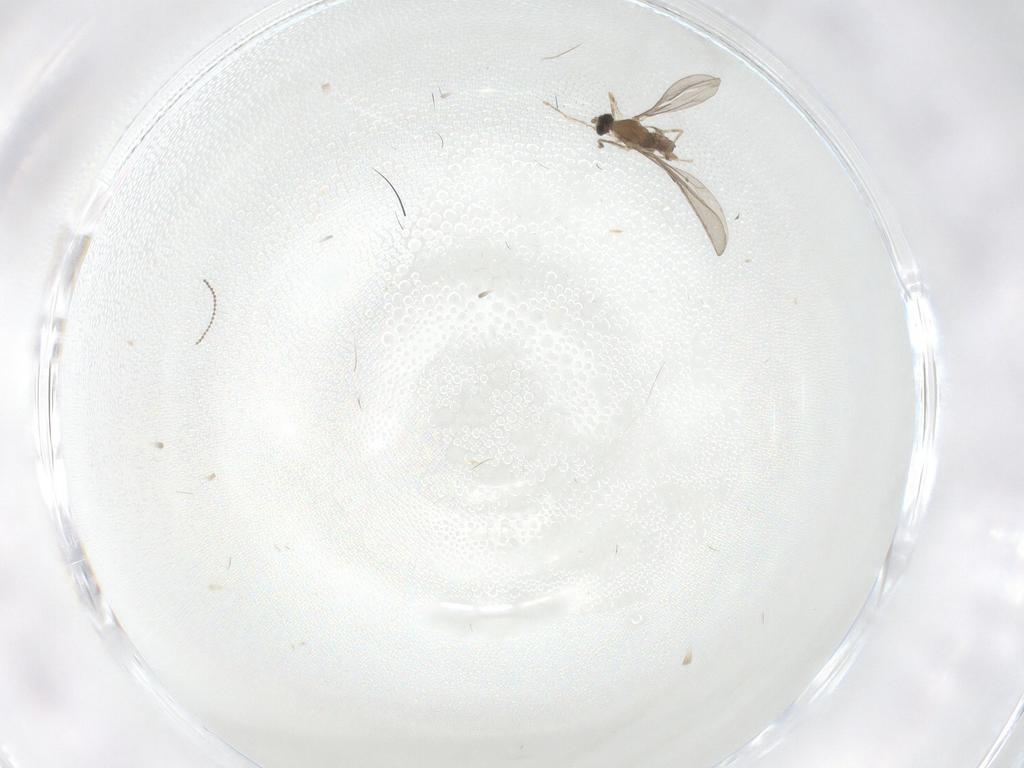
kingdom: Animalia
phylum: Arthropoda
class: Insecta
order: Diptera
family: Cecidomyiidae
